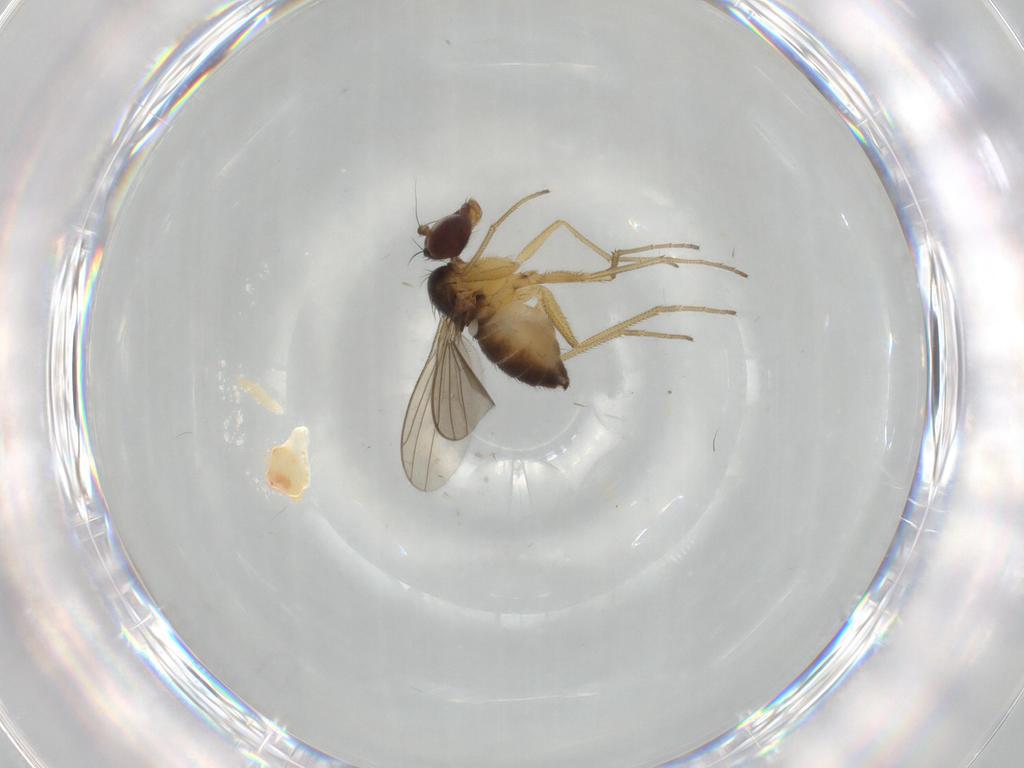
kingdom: Animalia
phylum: Arthropoda
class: Insecta
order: Diptera
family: Dolichopodidae
